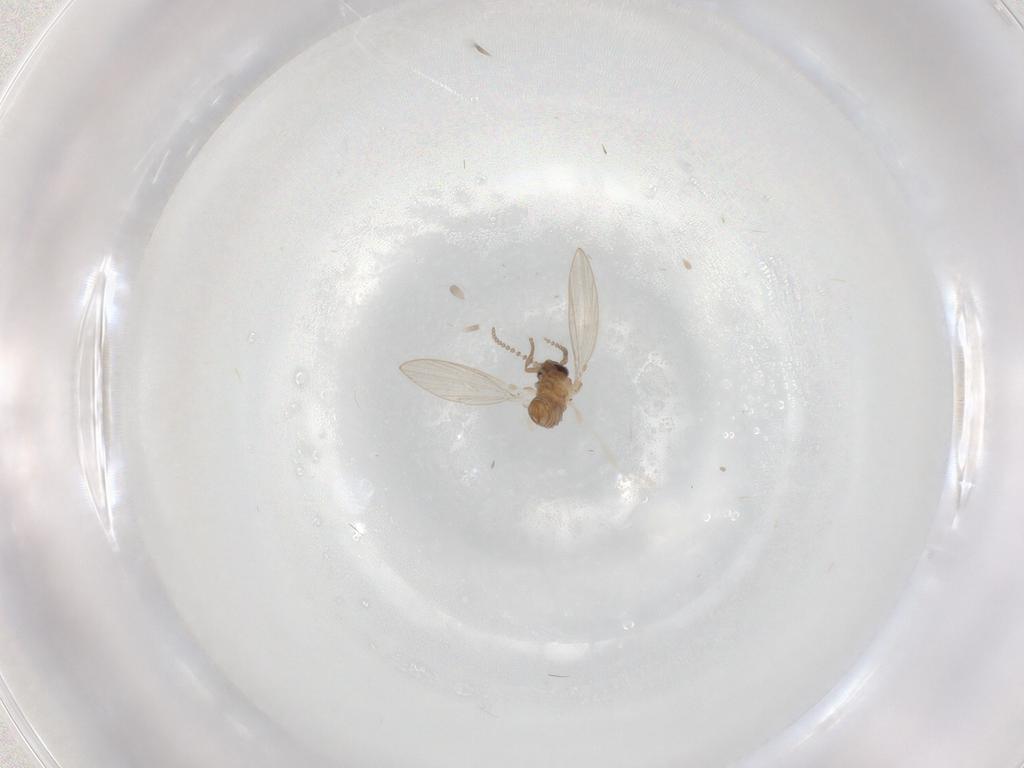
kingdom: Animalia
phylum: Arthropoda
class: Insecta
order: Diptera
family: Psychodidae
